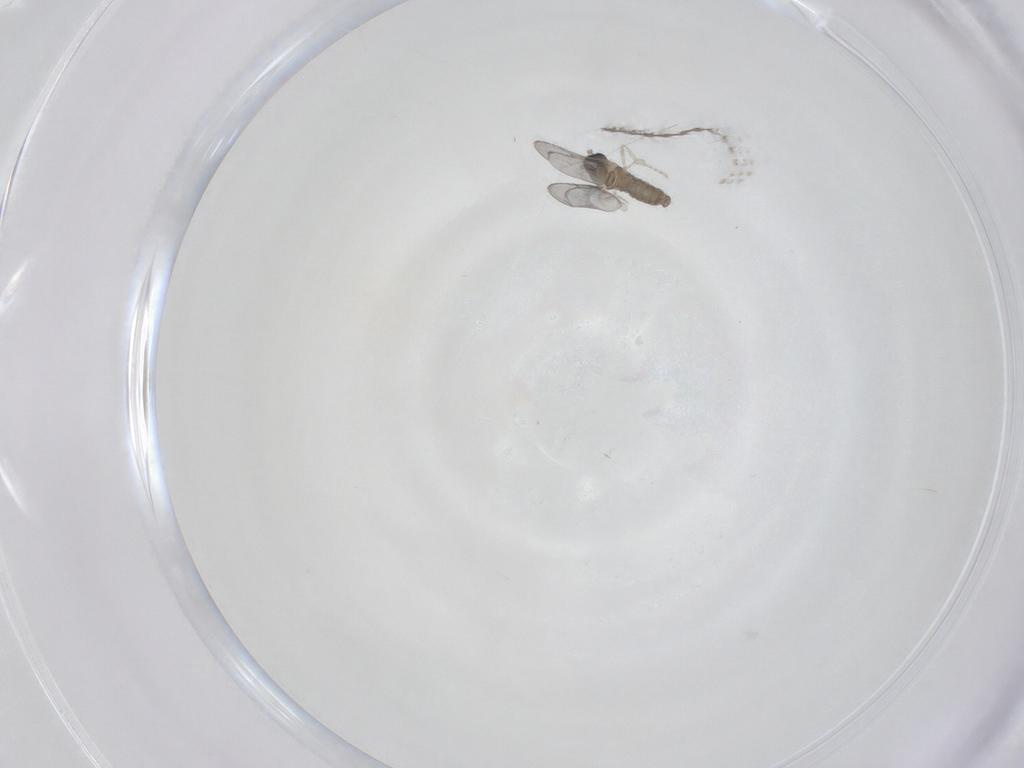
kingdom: Animalia
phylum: Arthropoda
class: Insecta
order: Diptera
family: Cecidomyiidae
